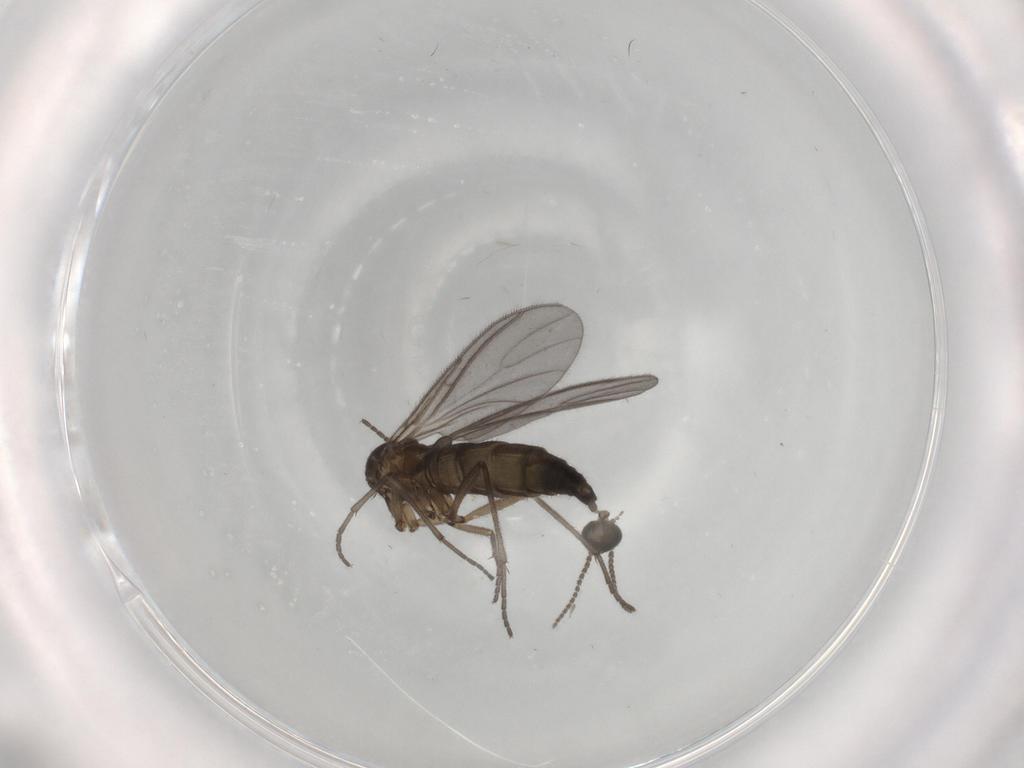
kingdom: Animalia
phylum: Arthropoda
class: Insecta
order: Diptera
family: Sciaridae
